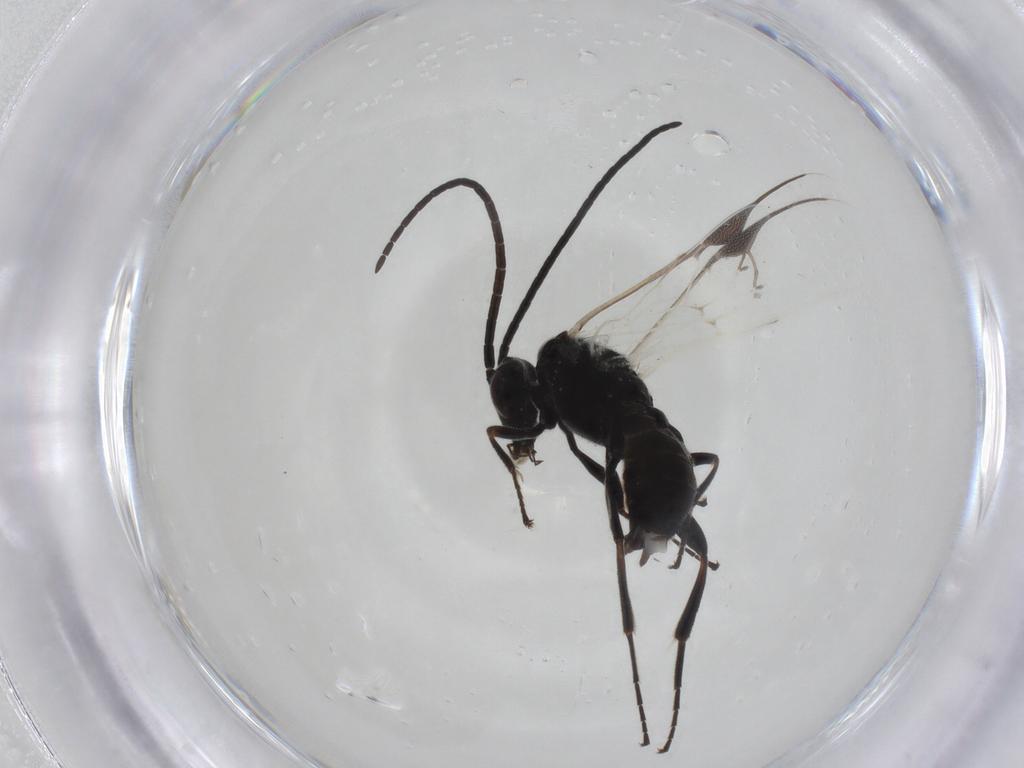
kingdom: Animalia
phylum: Arthropoda
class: Insecta
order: Hymenoptera
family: Braconidae
